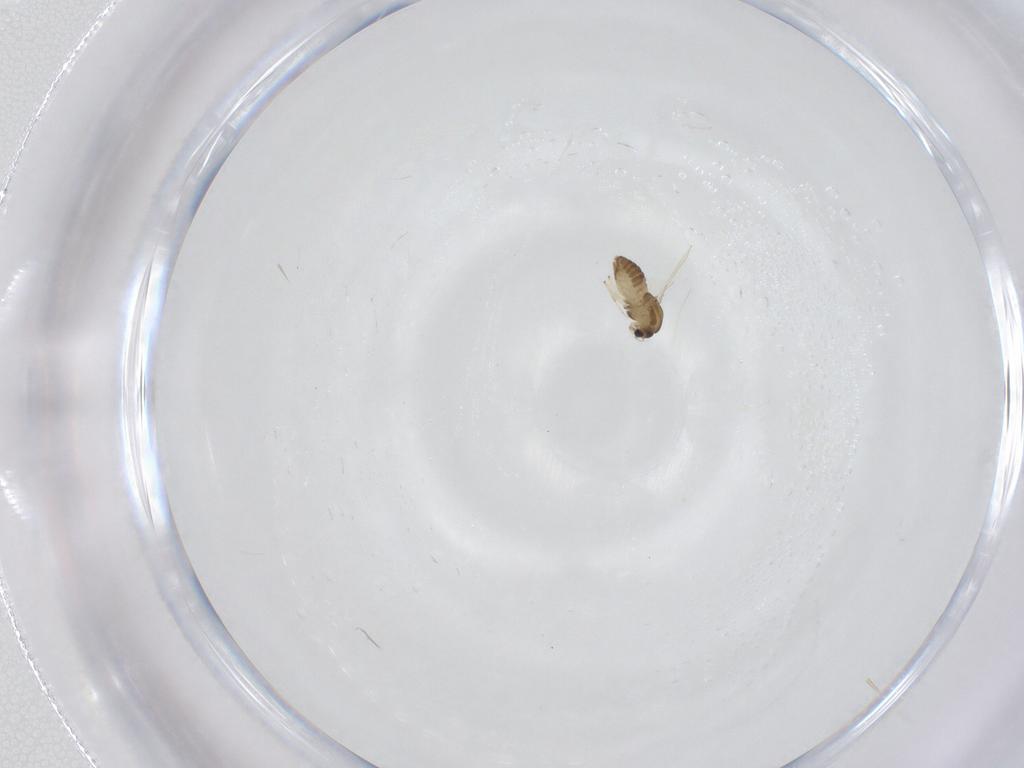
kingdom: Animalia
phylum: Arthropoda
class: Insecta
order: Diptera
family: Chironomidae
